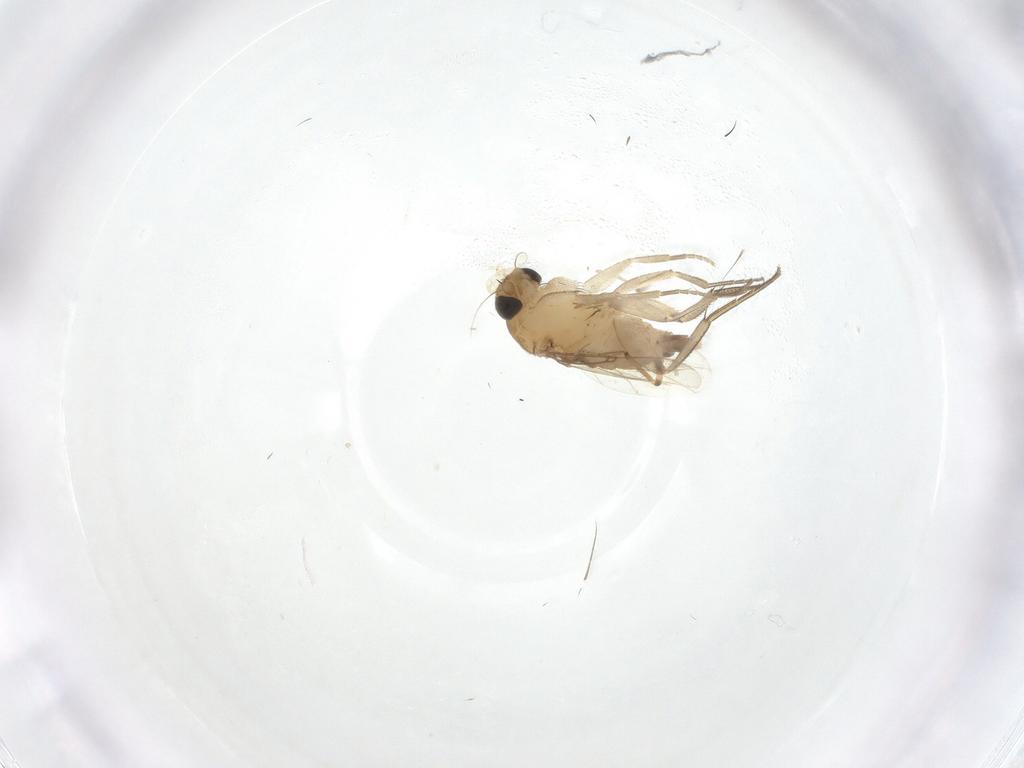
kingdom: Animalia
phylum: Arthropoda
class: Insecta
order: Diptera
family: Phoridae
